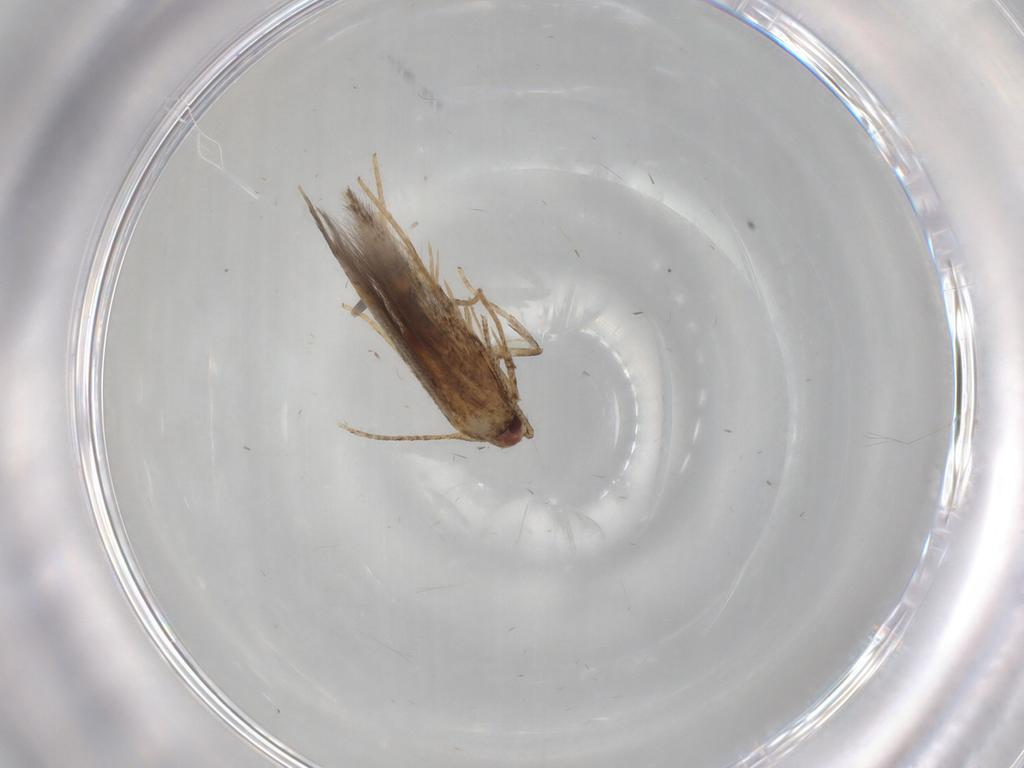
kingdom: Animalia
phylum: Arthropoda
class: Insecta
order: Lepidoptera
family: Cosmopterigidae
